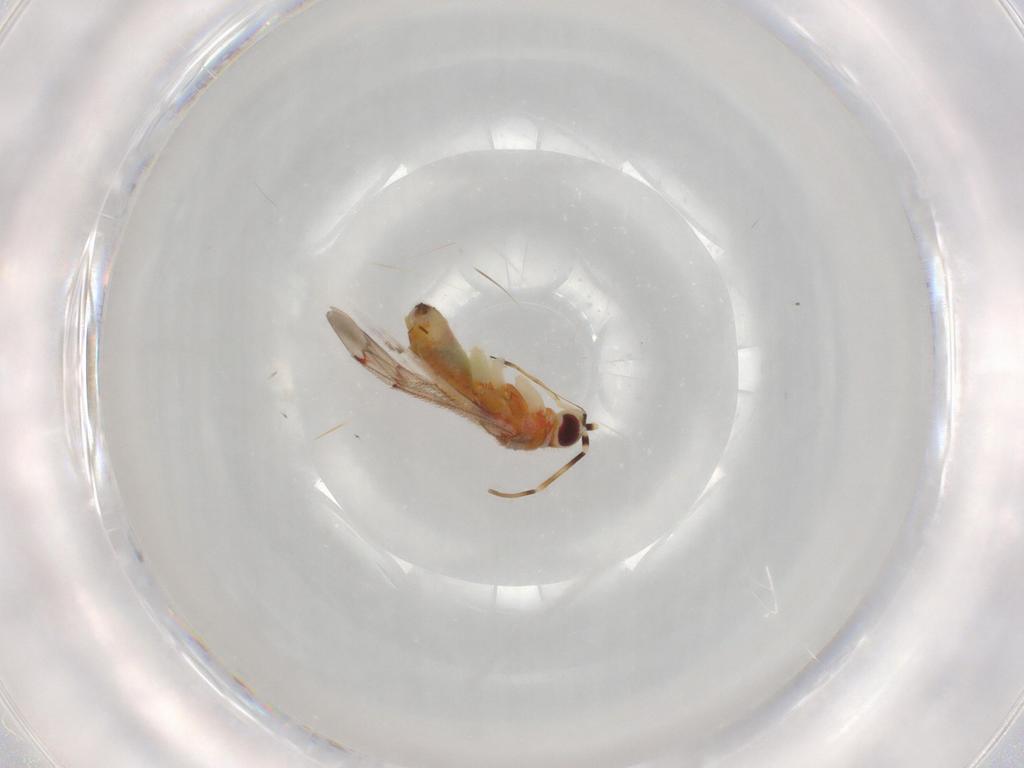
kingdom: Animalia
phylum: Arthropoda
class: Insecta
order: Hemiptera
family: Miridae
